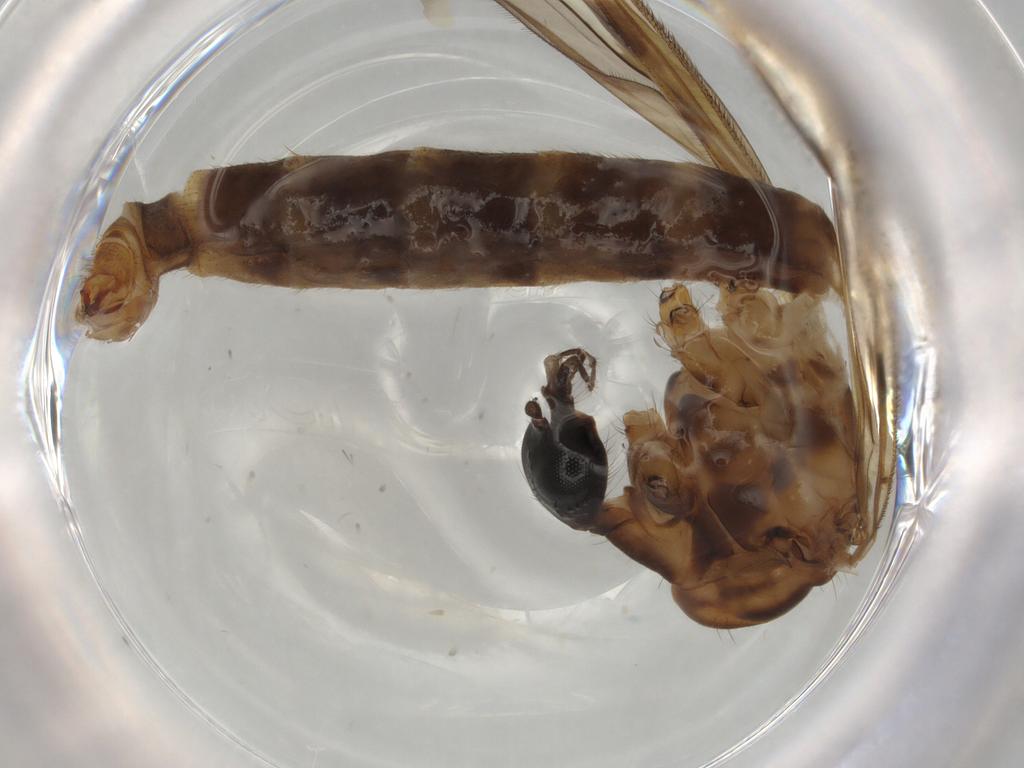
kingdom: Animalia
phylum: Arthropoda
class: Insecta
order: Diptera
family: Limoniidae
